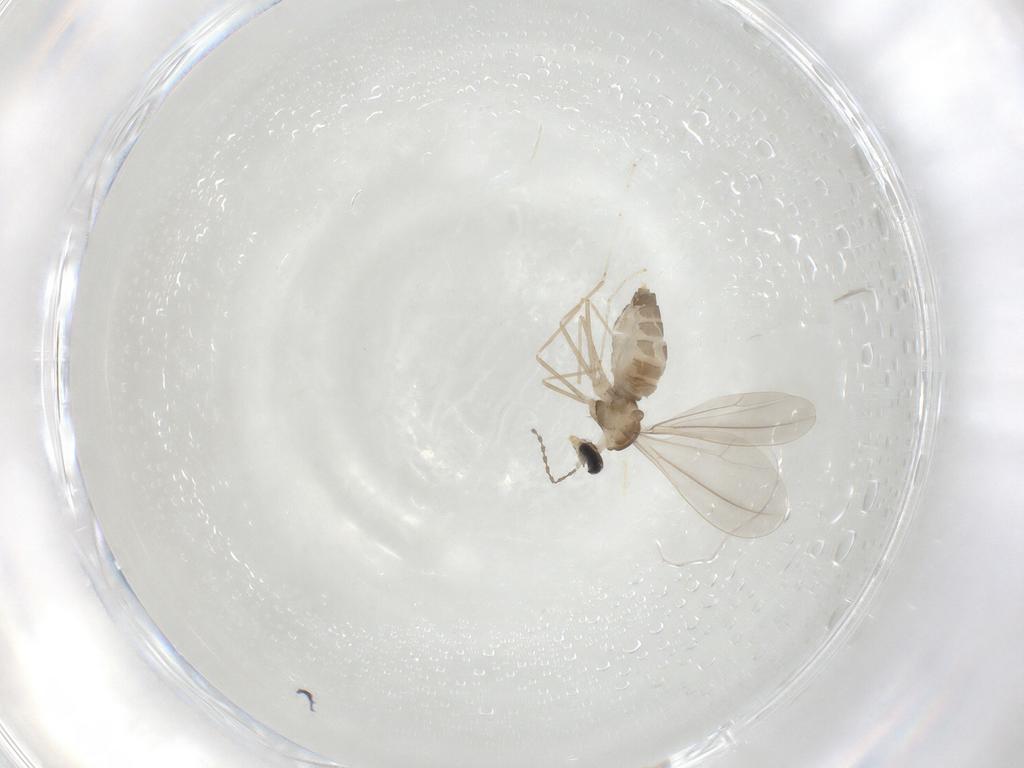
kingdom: Animalia
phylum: Arthropoda
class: Insecta
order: Diptera
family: Cecidomyiidae
